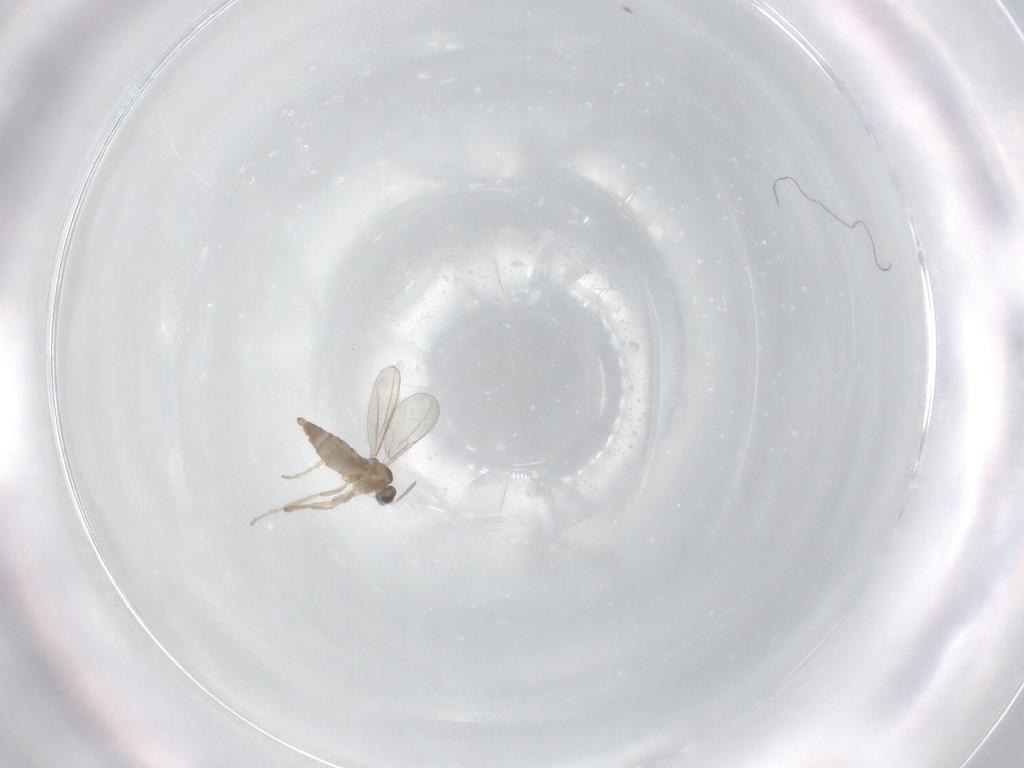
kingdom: Animalia
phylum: Arthropoda
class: Insecta
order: Diptera
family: Cecidomyiidae
